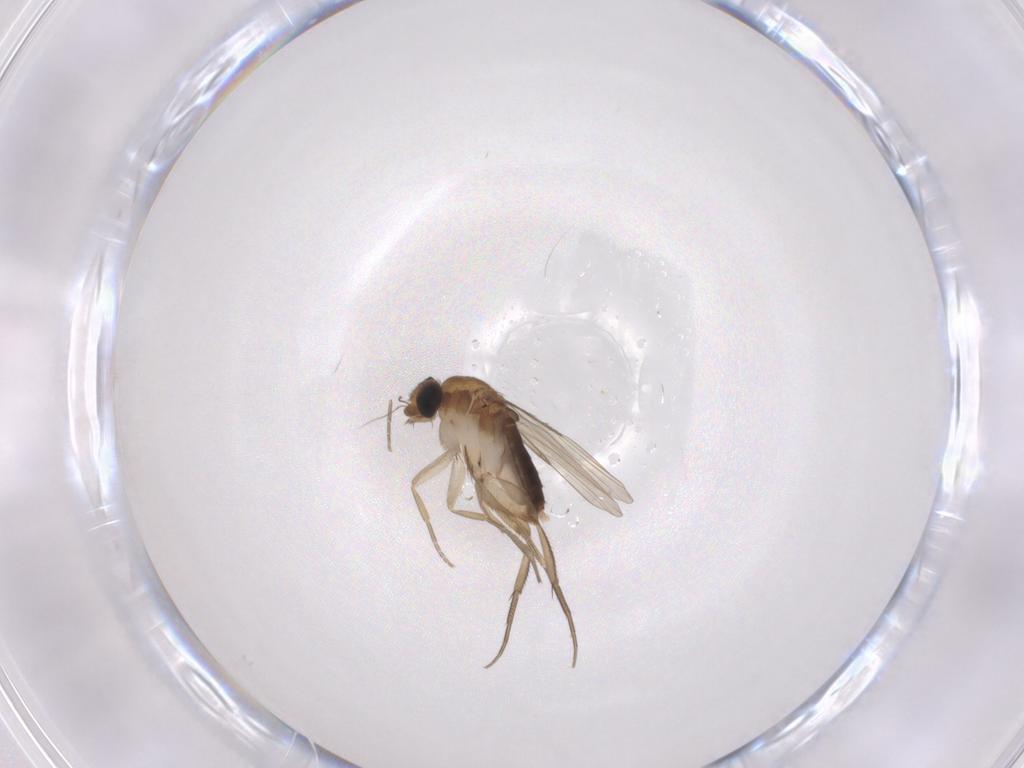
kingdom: Animalia
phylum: Arthropoda
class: Insecta
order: Diptera
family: Phoridae
